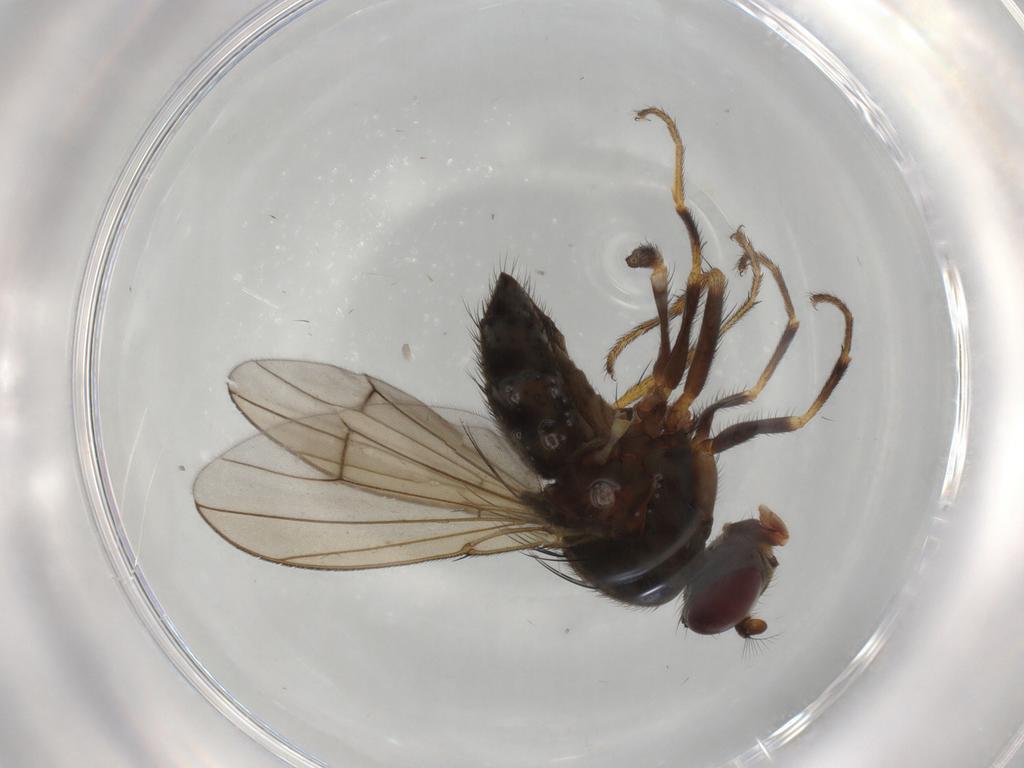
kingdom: Animalia
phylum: Arthropoda
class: Insecta
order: Diptera
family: Ephydridae
